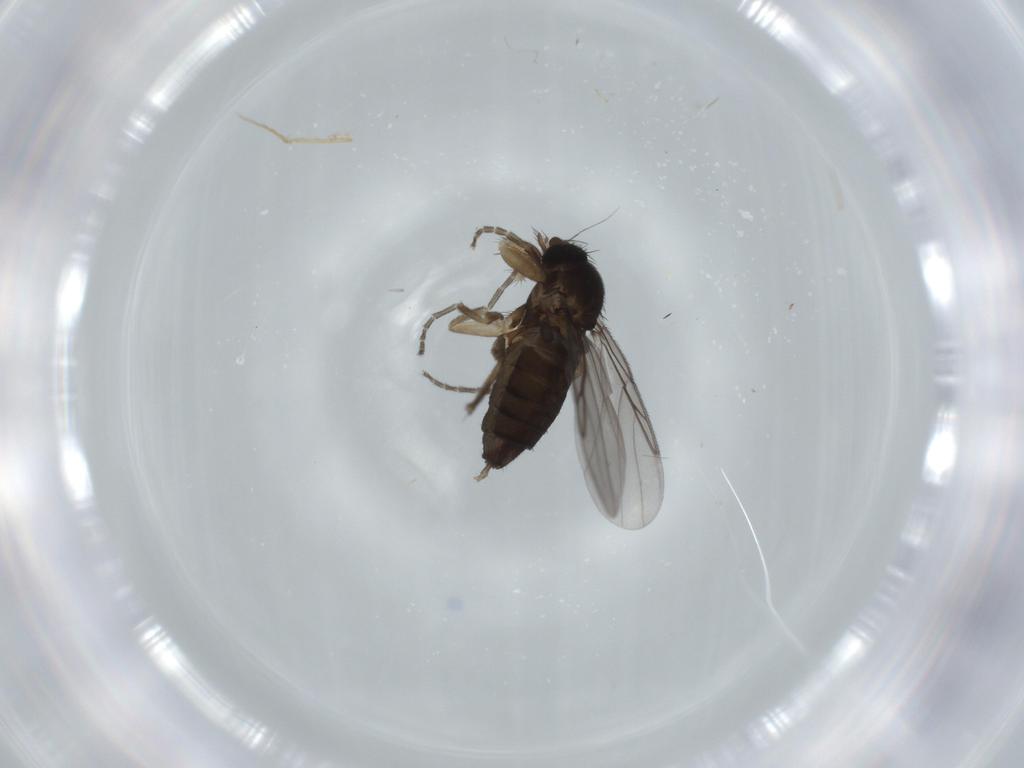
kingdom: Animalia
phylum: Arthropoda
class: Insecta
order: Diptera
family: Phoridae
